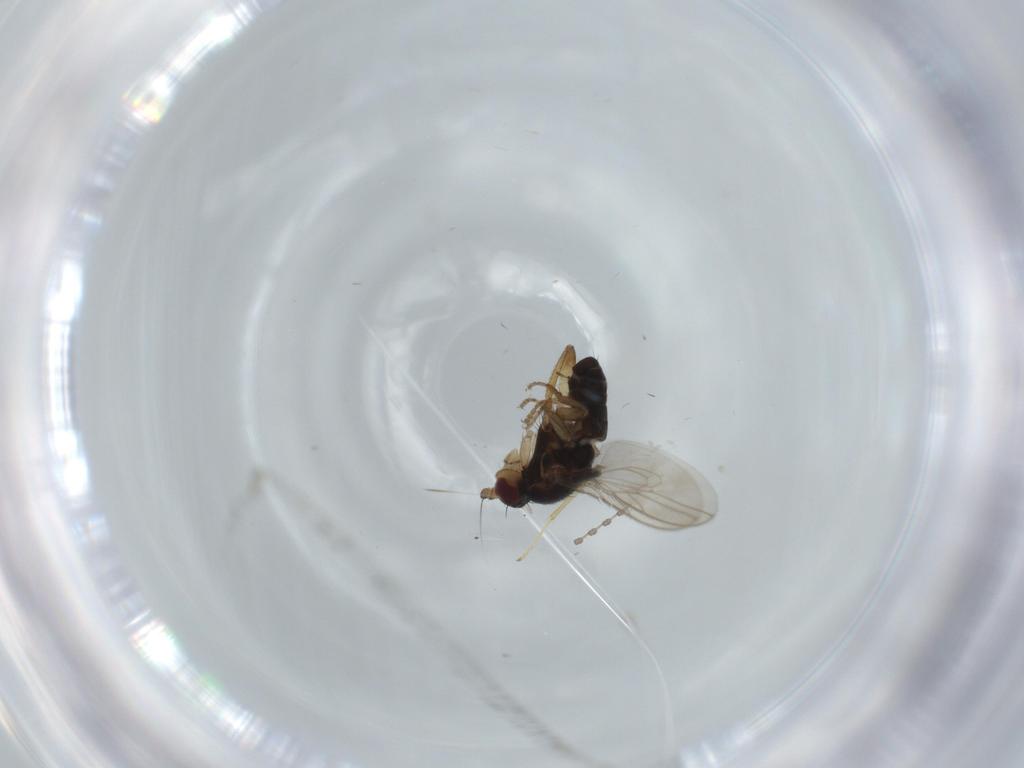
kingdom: Animalia
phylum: Arthropoda
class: Insecta
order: Diptera
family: Sphaeroceridae
